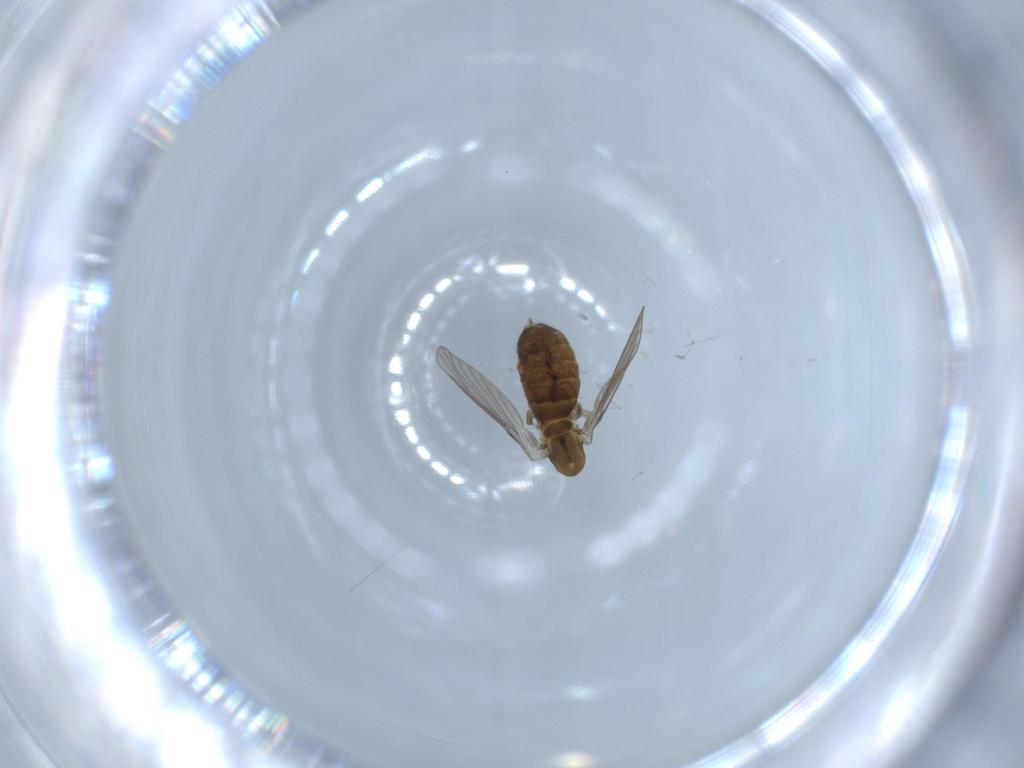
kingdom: Animalia
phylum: Arthropoda
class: Insecta
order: Diptera
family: Psychodidae
